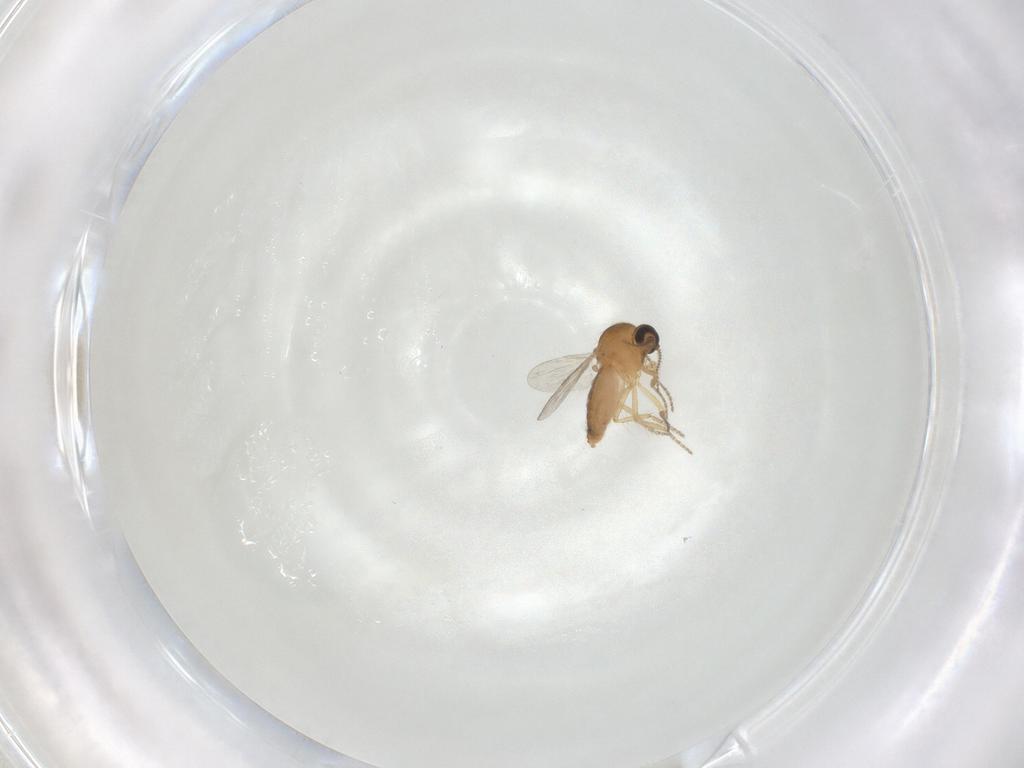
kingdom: Animalia
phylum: Arthropoda
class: Insecta
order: Diptera
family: Ceratopogonidae
